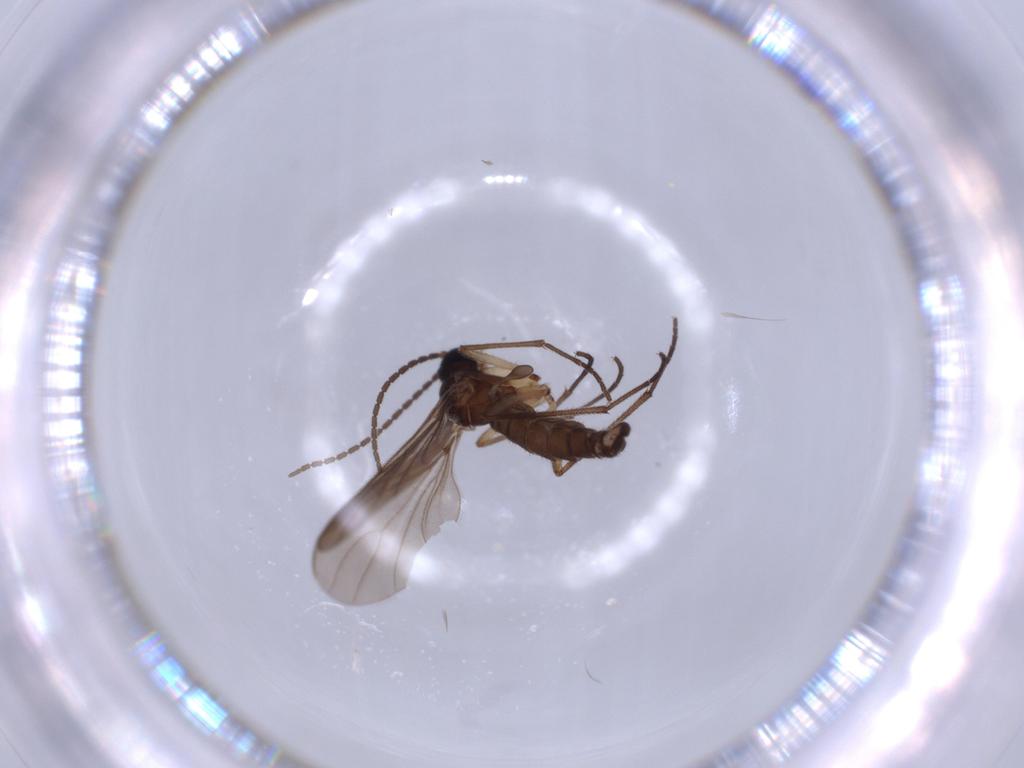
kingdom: Animalia
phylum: Arthropoda
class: Insecta
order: Diptera
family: Sciaridae
